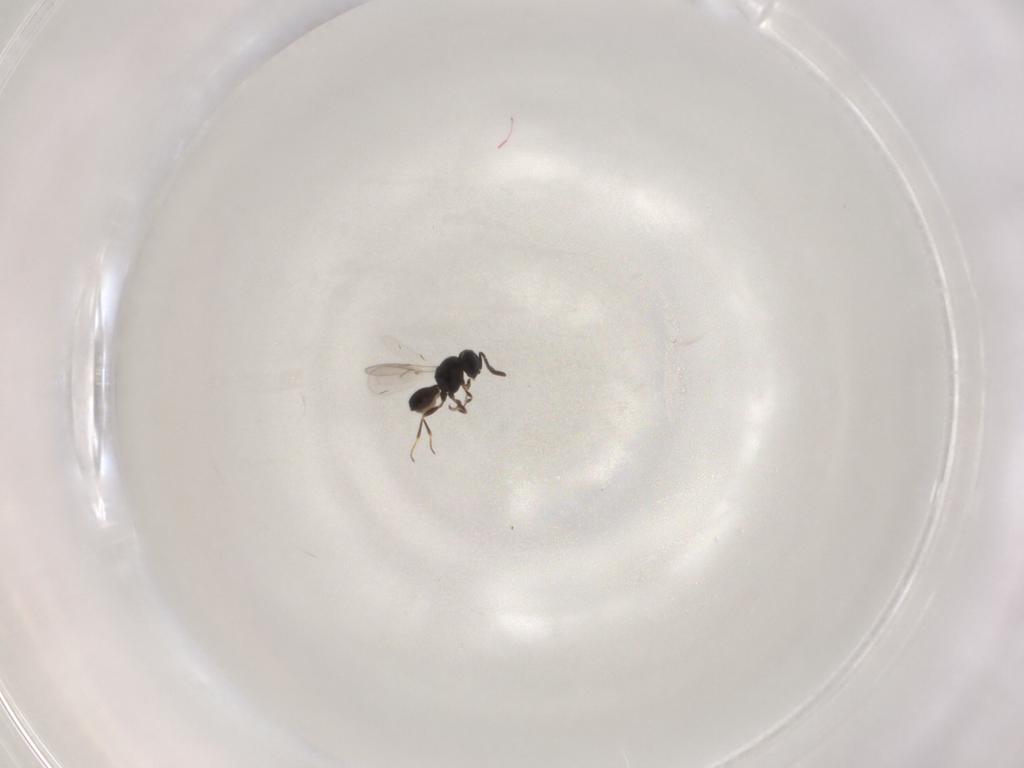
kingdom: Animalia
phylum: Arthropoda
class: Insecta
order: Hymenoptera
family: Scelionidae
